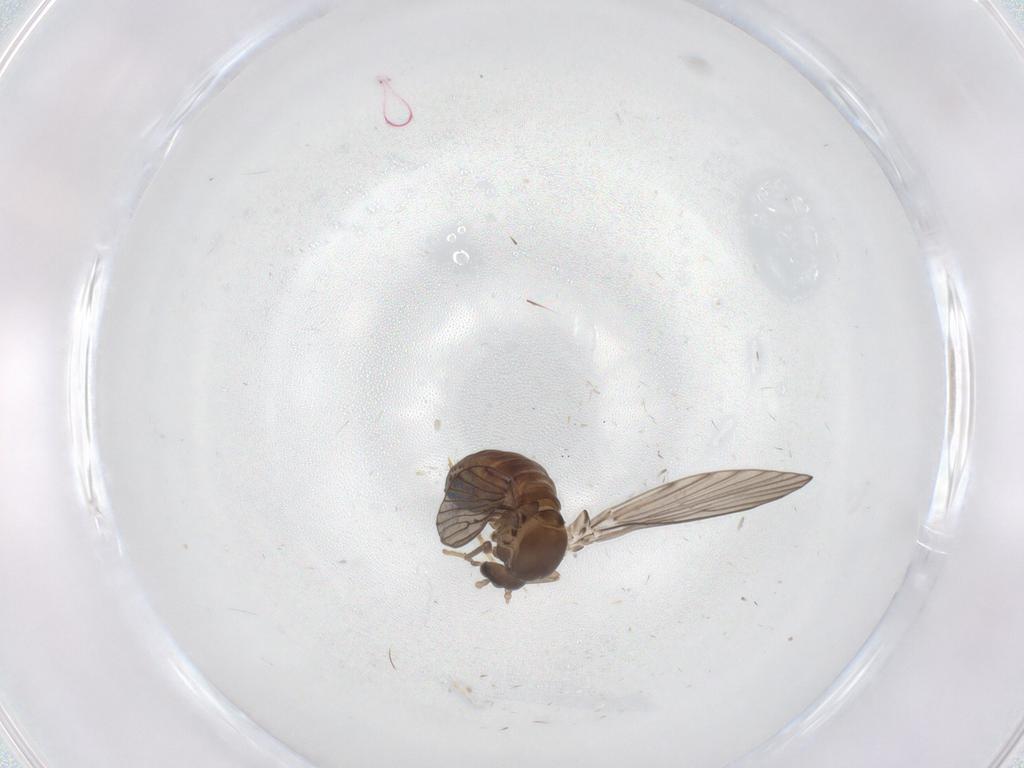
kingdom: Animalia
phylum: Arthropoda
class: Insecta
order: Diptera
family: Psychodidae
